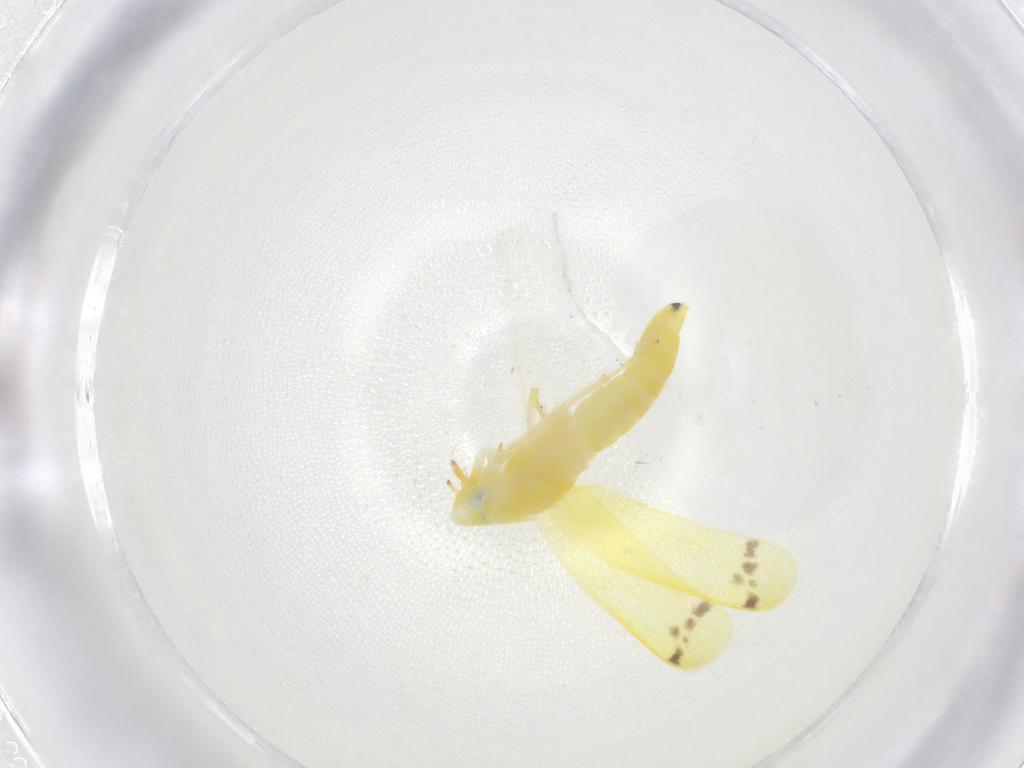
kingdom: Animalia
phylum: Arthropoda
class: Insecta
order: Hemiptera
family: Cicadellidae
